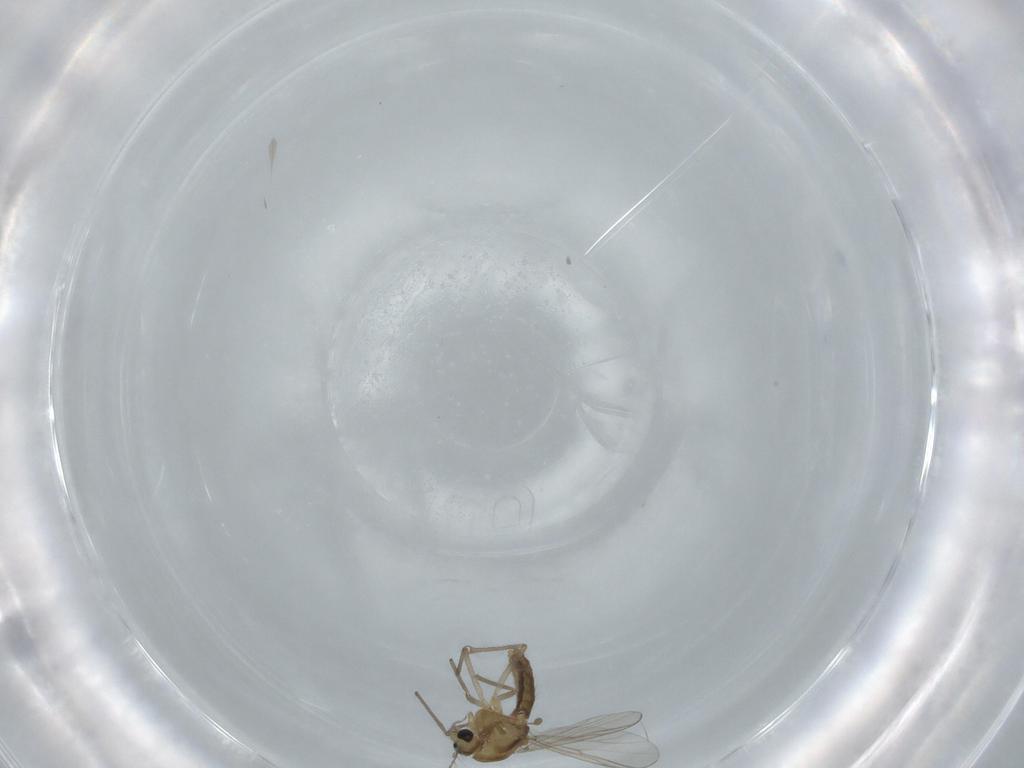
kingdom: Animalia
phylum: Arthropoda
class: Insecta
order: Diptera
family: Chironomidae
